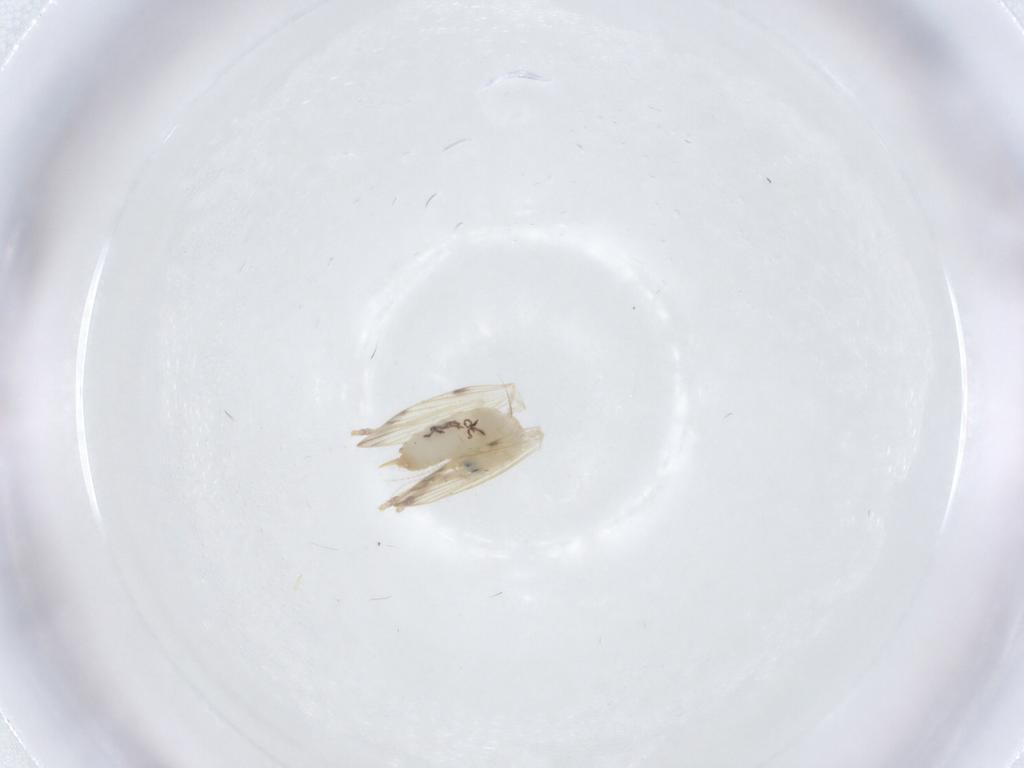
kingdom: Animalia
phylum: Arthropoda
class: Insecta
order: Diptera
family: Psychodidae
